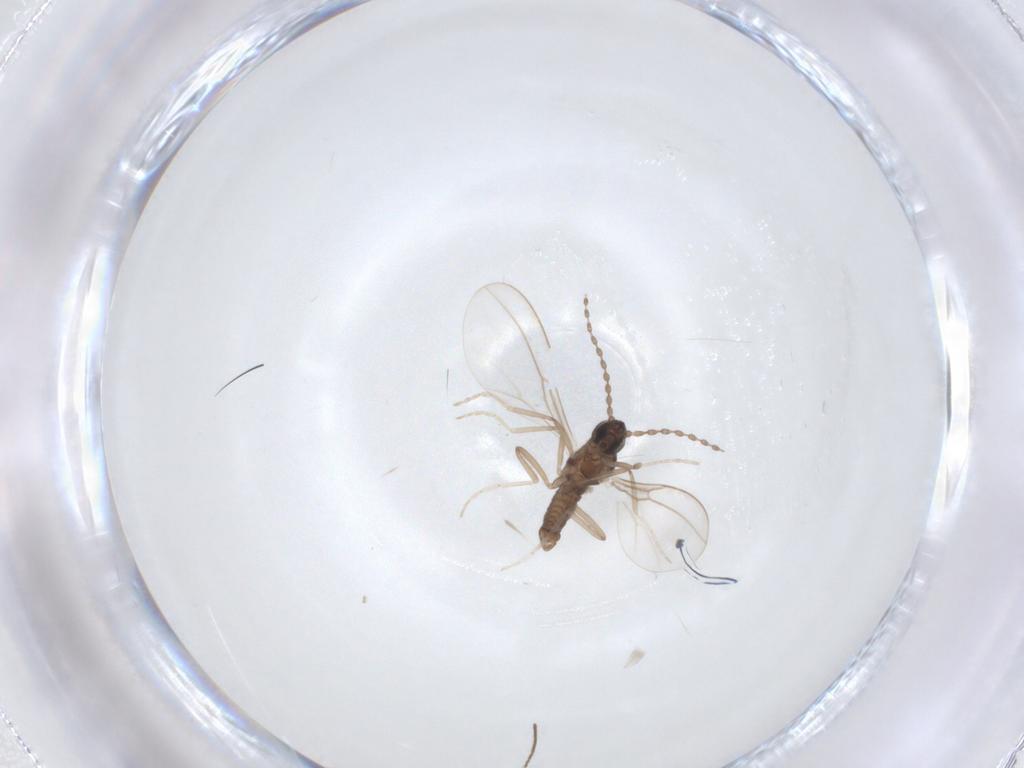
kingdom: Animalia
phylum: Arthropoda
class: Insecta
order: Diptera
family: Cecidomyiidae
